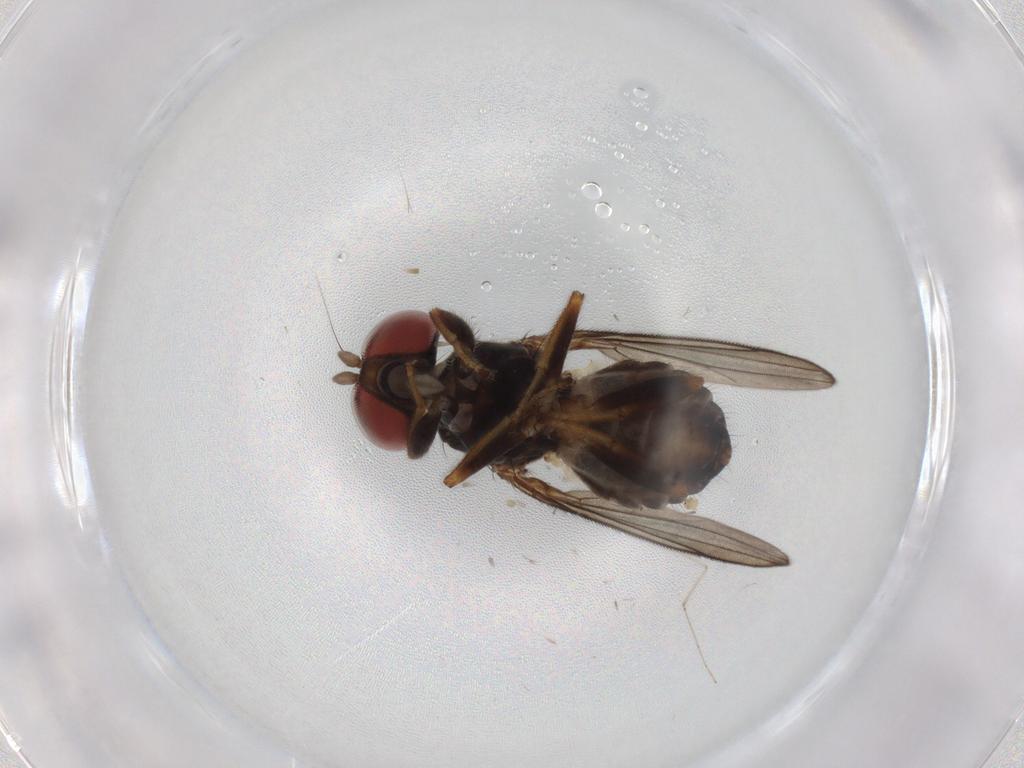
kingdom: Animalia
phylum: Arthropoda
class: Insecta
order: Diptera
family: Aulacigastridae
